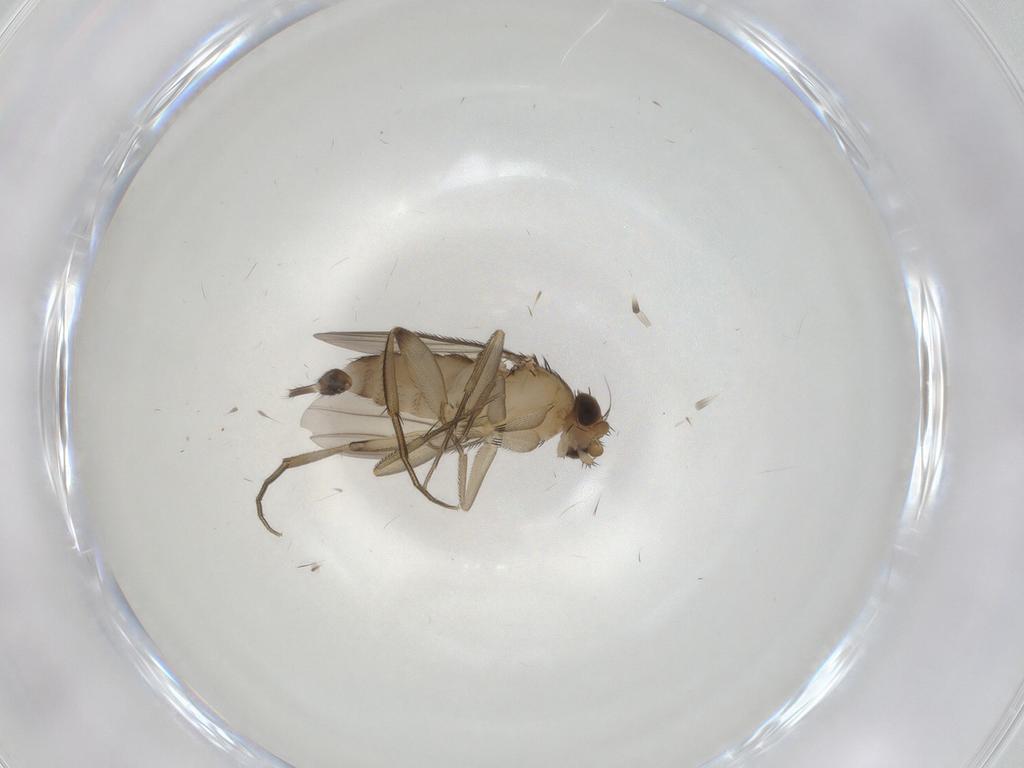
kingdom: Animalia
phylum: Arthropoda
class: Insecta
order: Diptera
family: Phoridae
